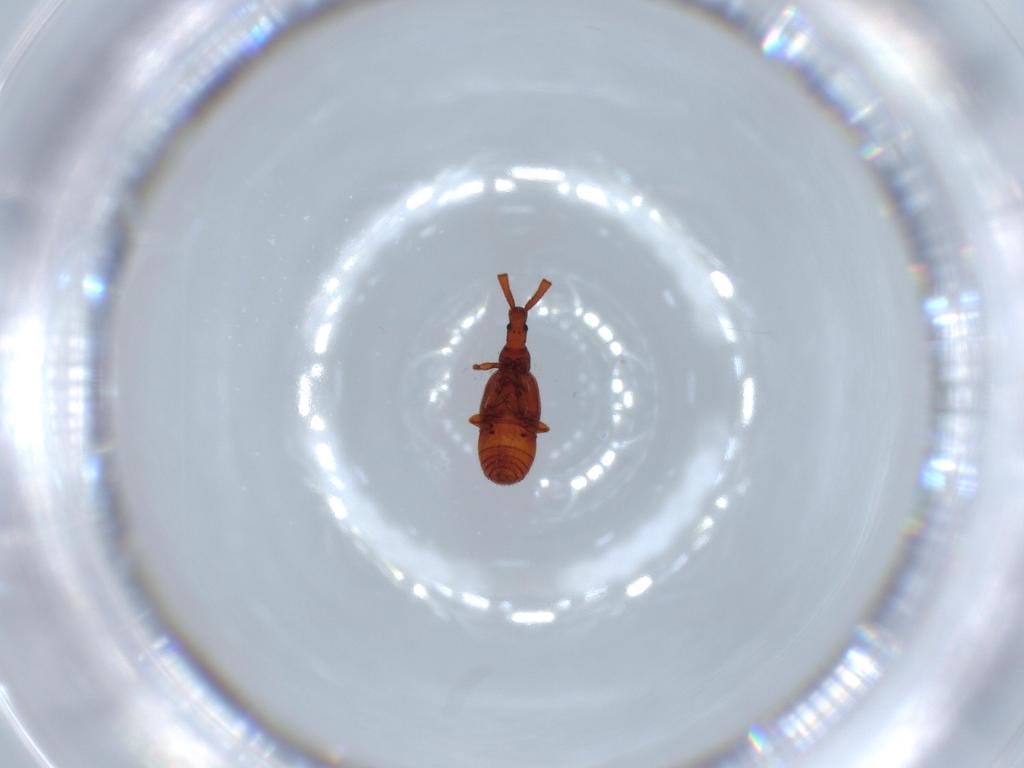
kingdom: Animalia
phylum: Arthropoda
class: Insecta
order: Coleoptera
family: Staphylinidae
